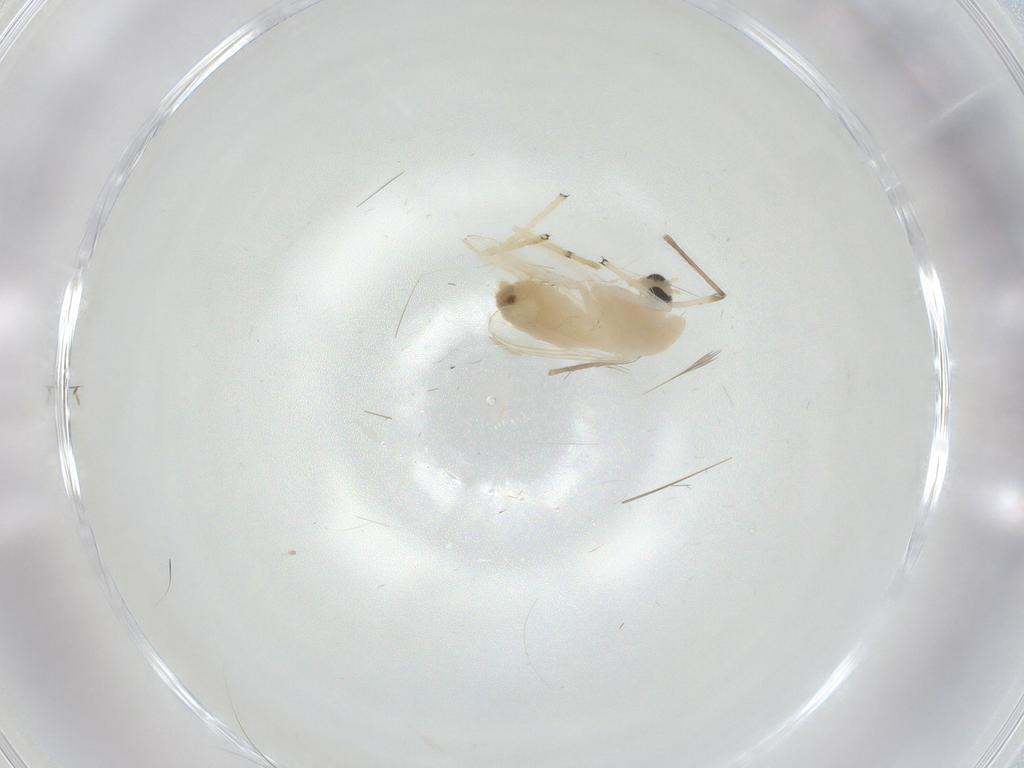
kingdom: Animalia
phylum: Arthropoda
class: Insecta
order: Diptera
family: Chironomidae
